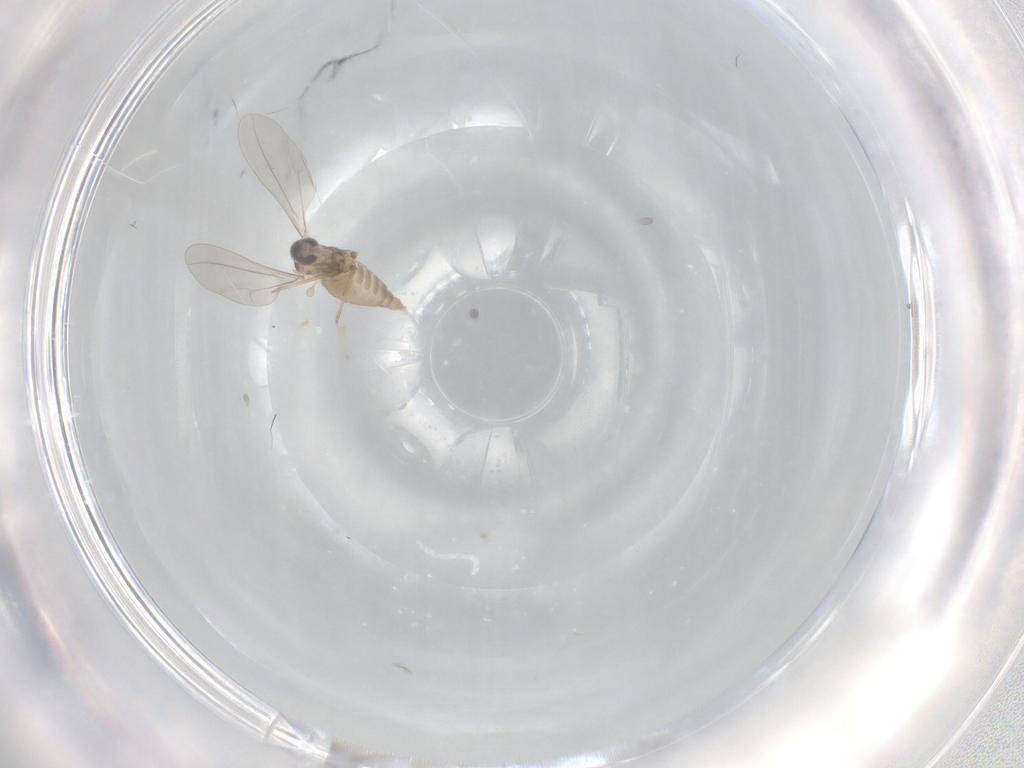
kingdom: Animalia
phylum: Arthropoda
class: Insecta
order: Diptera
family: Cecidomyiidae
